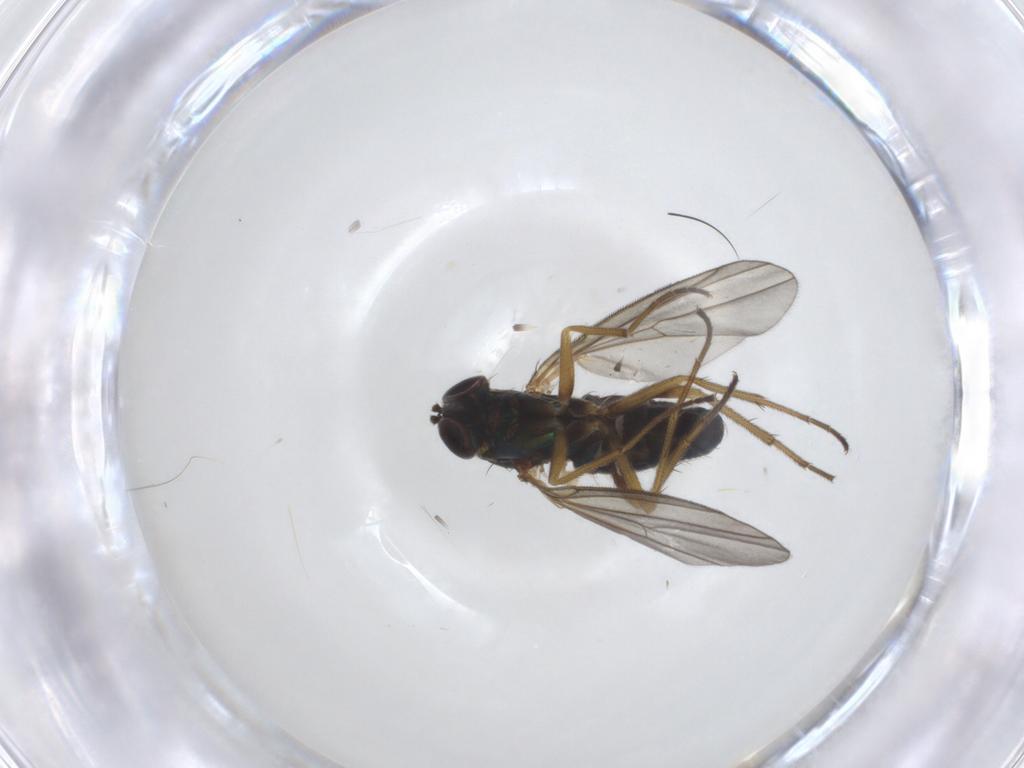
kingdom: Animalia
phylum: Arthropoda
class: Insecta
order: Diptera
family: Dolichopodidae
